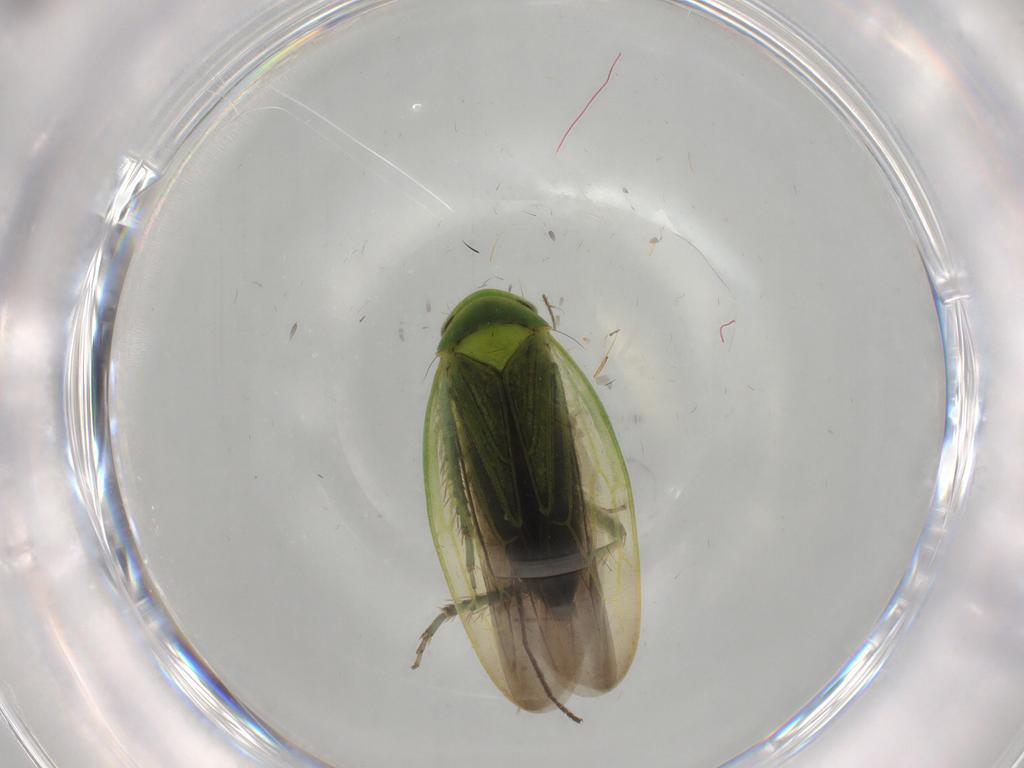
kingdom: Animalia
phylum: Arthropoda
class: Insecta
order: Hemiptera
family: Cicadellidae
